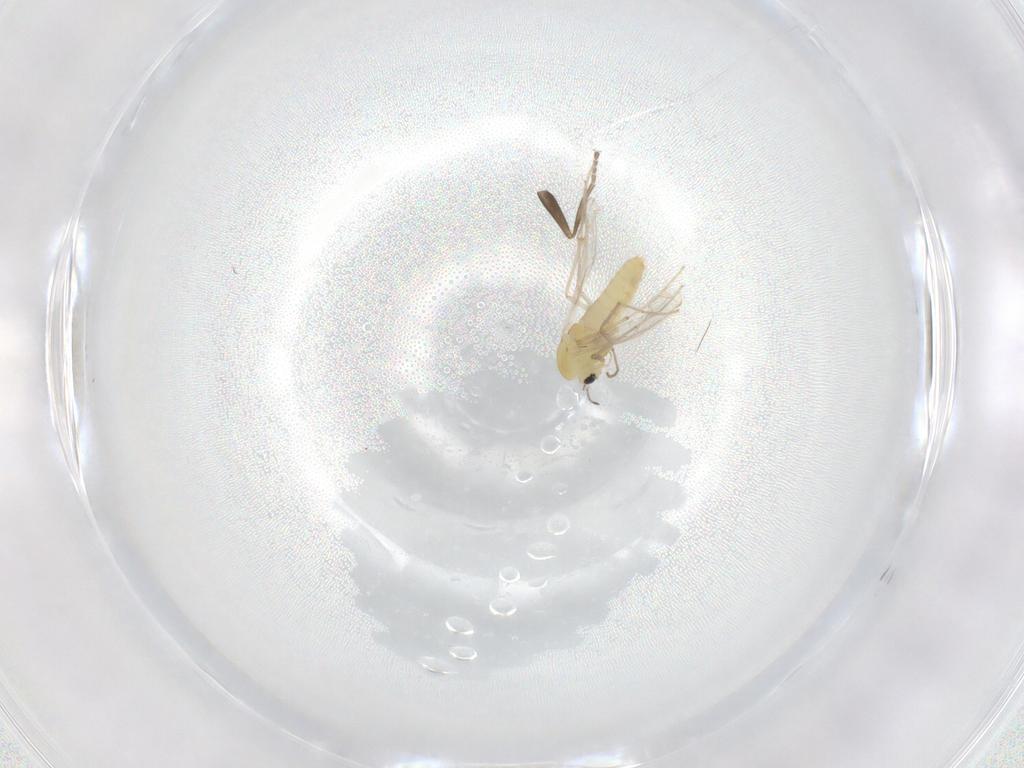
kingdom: Animalia
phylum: Arthropoda
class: Insecta
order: Diptera
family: Chironomidae
